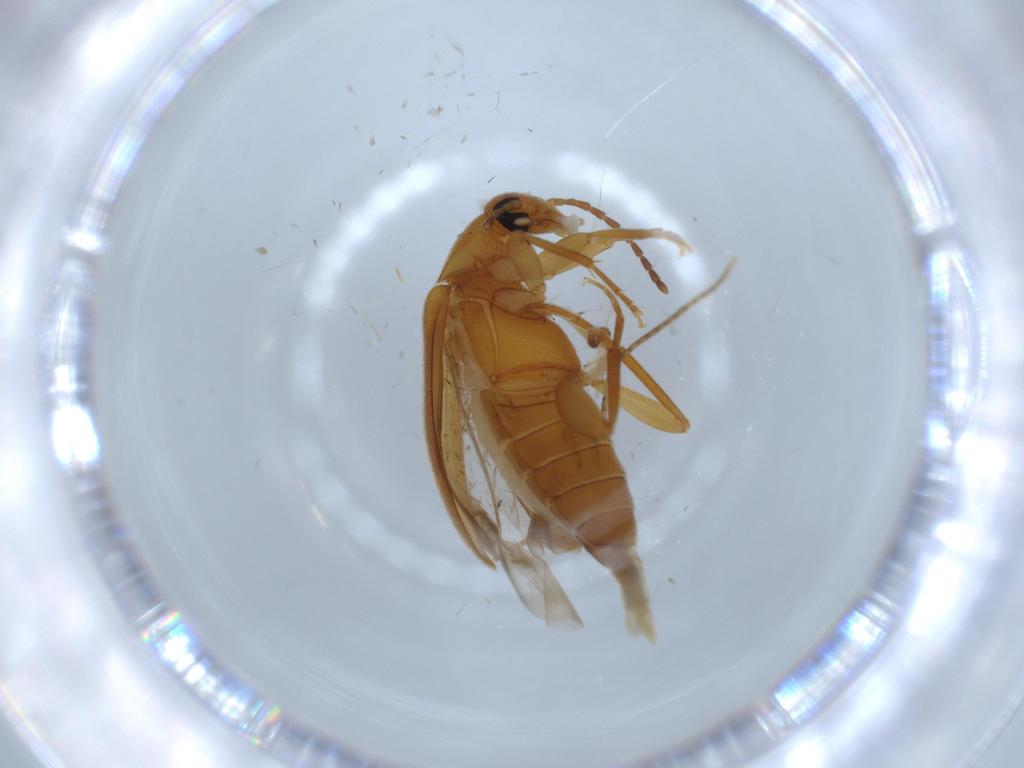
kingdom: Animalia
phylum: Arthropoda
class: Insecta
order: Coleoptera
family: Scraptiidae
